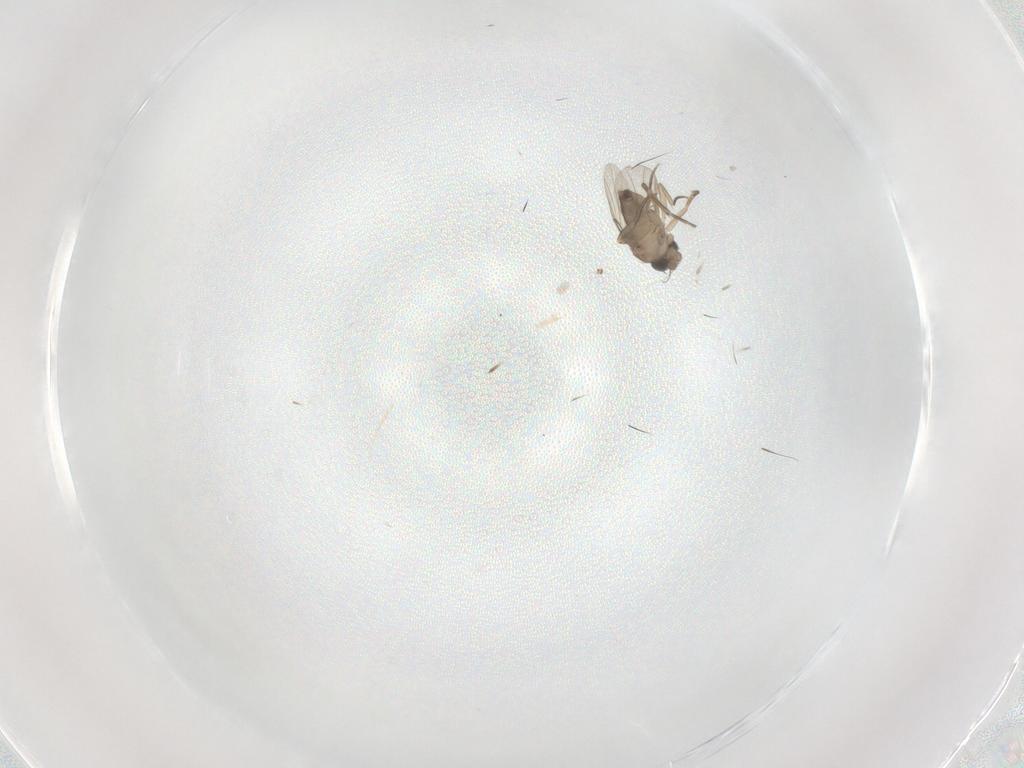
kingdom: Animalia
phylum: Arthropoda
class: Insecta
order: Diptera
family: Phoridae
